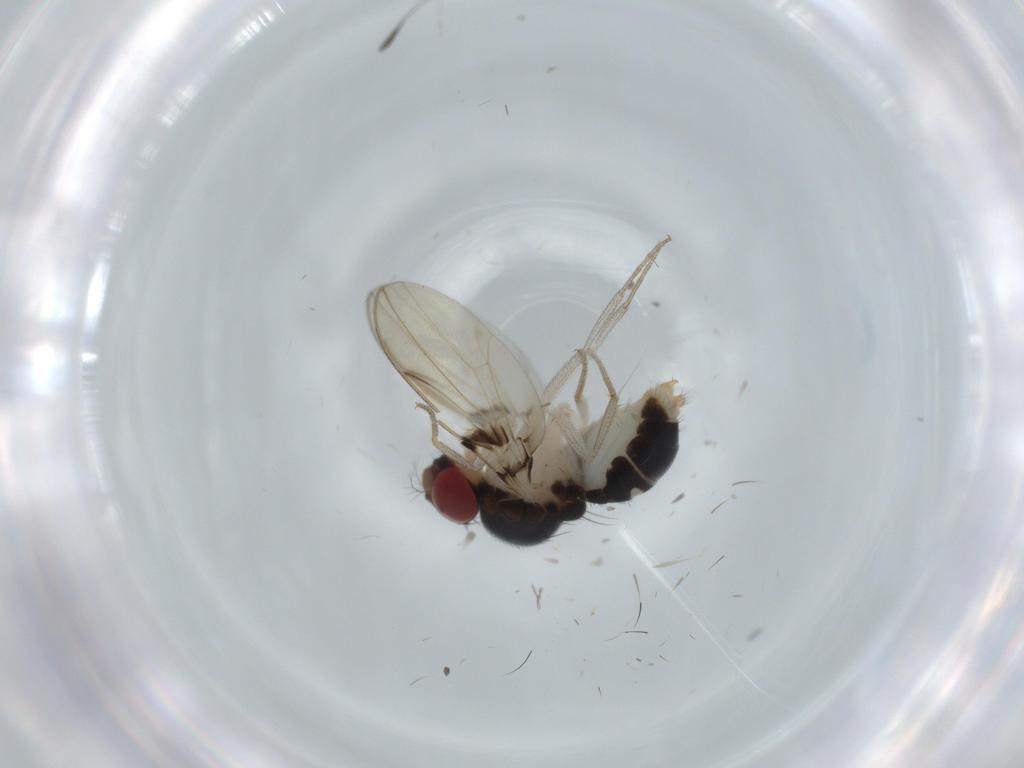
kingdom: Animalia
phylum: Arthropoda
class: Insecta
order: Diptera
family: Drosophilidae
